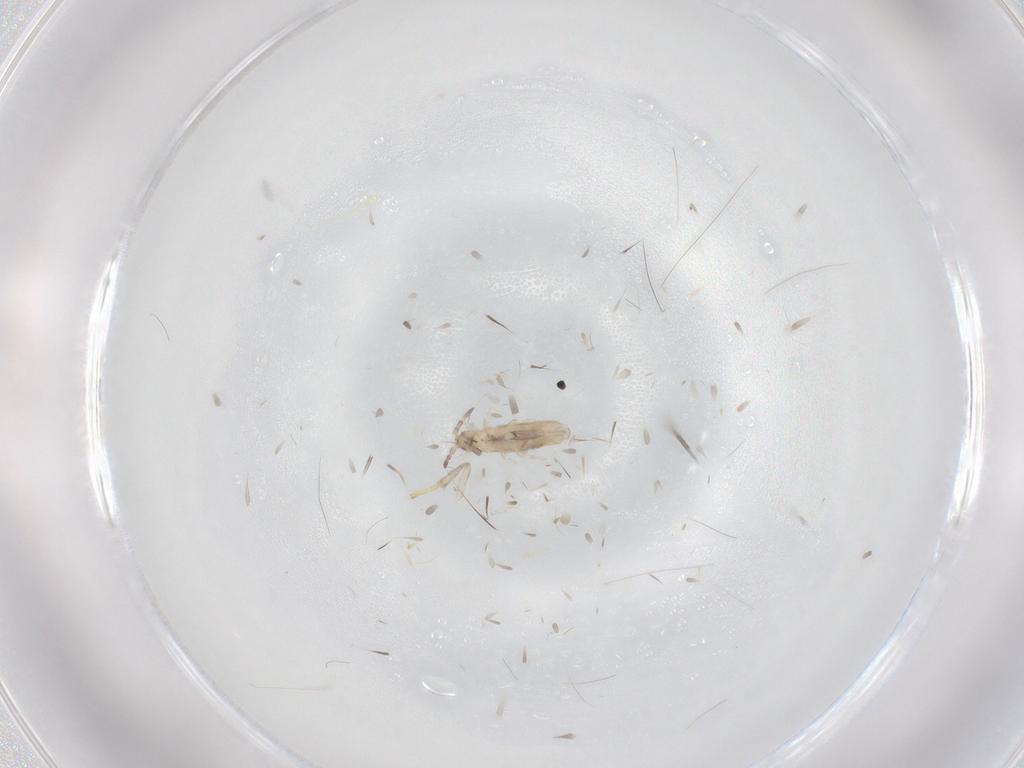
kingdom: Animalia
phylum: Arthropoda
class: Collembola
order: Entomobryomorpha
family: Entomobryidae
